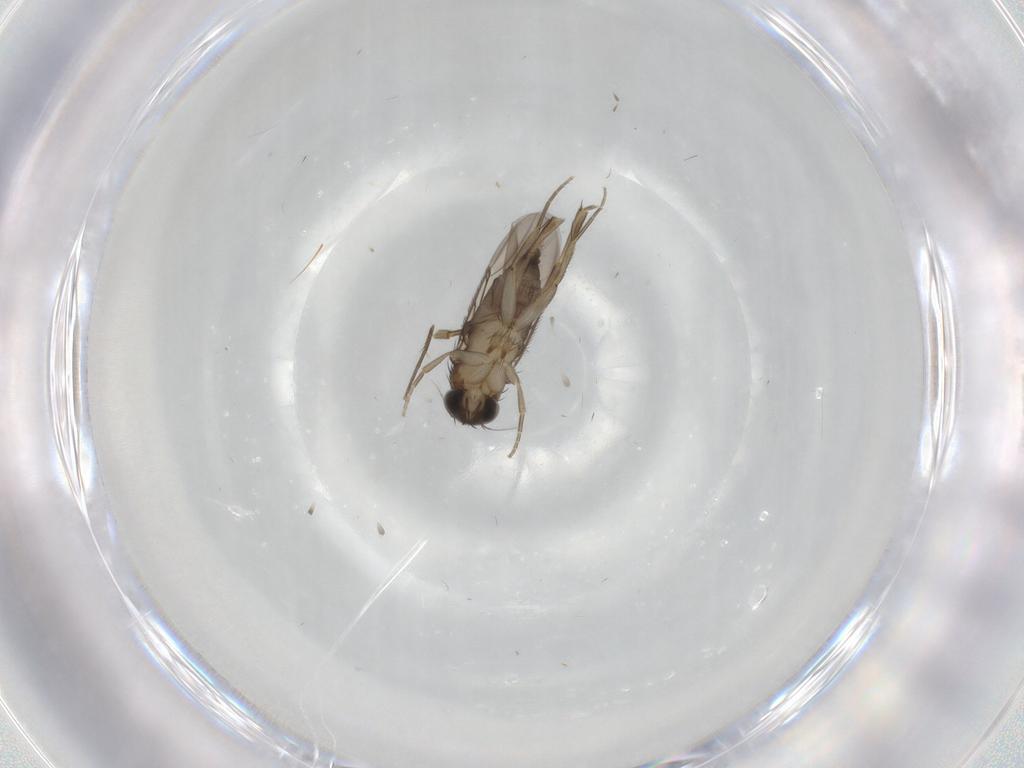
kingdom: Animalia
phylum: Arthropoda
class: Insecta
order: Diptera
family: Phoridae
